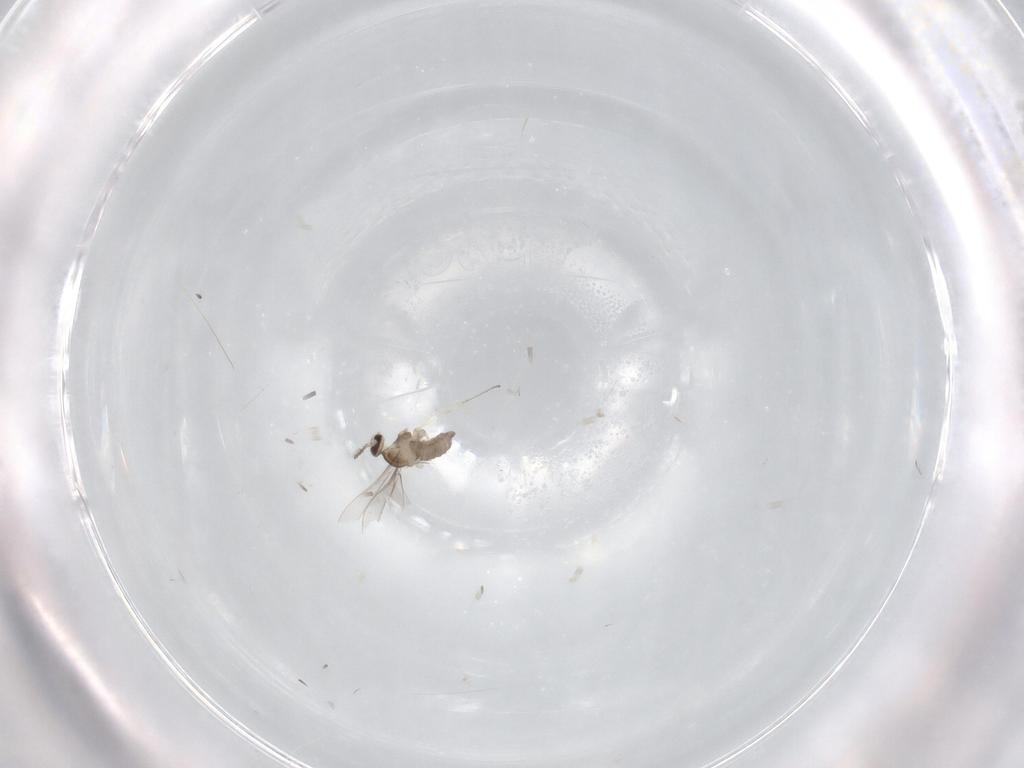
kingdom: Animalia
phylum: Arthropoda
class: Insecta
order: Diptera
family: Cecidomyiidae
